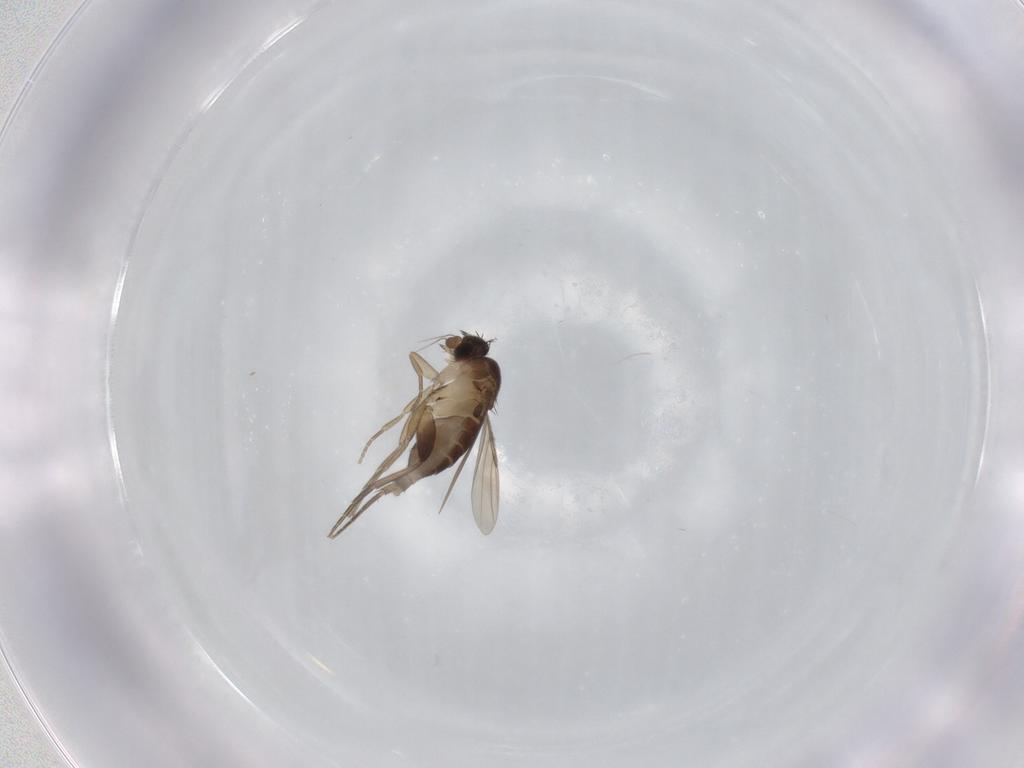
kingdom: Animalia
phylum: Arthropoda
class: Insecta
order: Diptera
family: Phoridae
